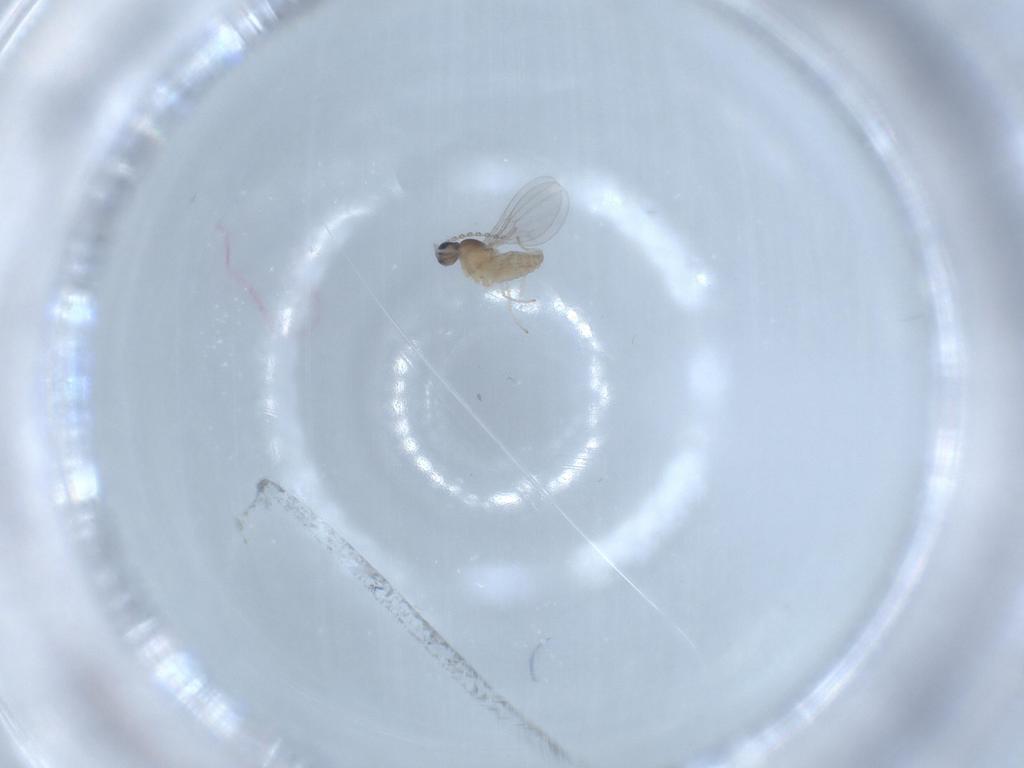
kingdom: Animalia
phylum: Arthropoda
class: Insecta
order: Diptera
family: Cecidomyiidae
